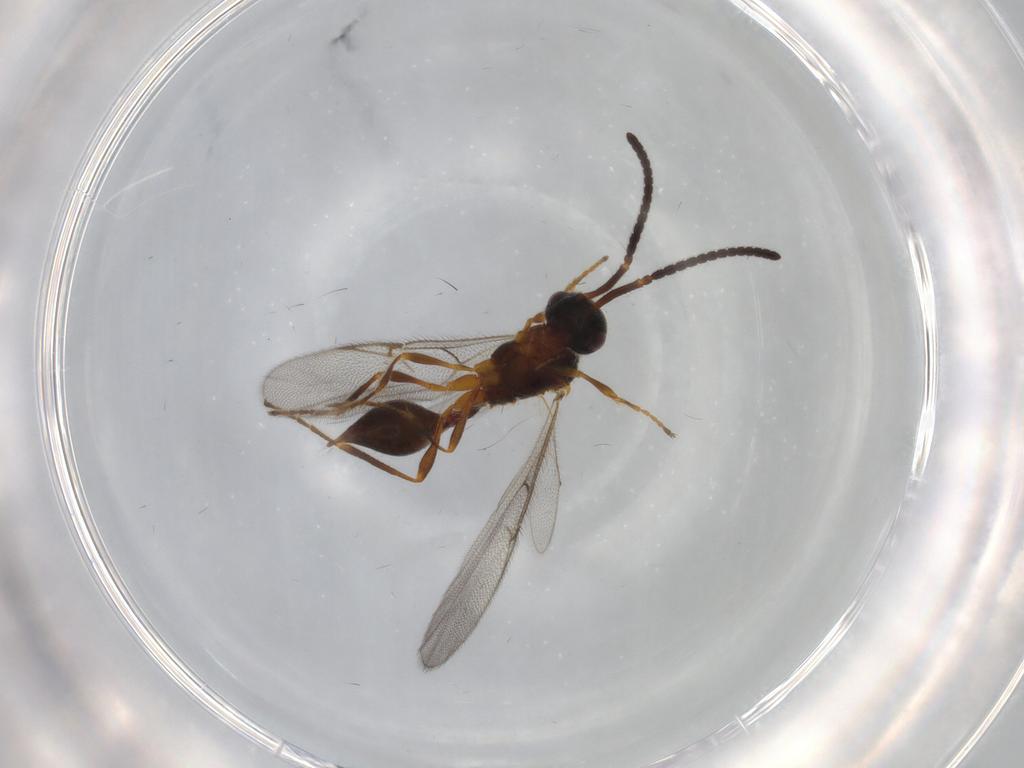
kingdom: Animalia
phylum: Arthropoda
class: Insecta
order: Hymenoptera
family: Diapriidae
